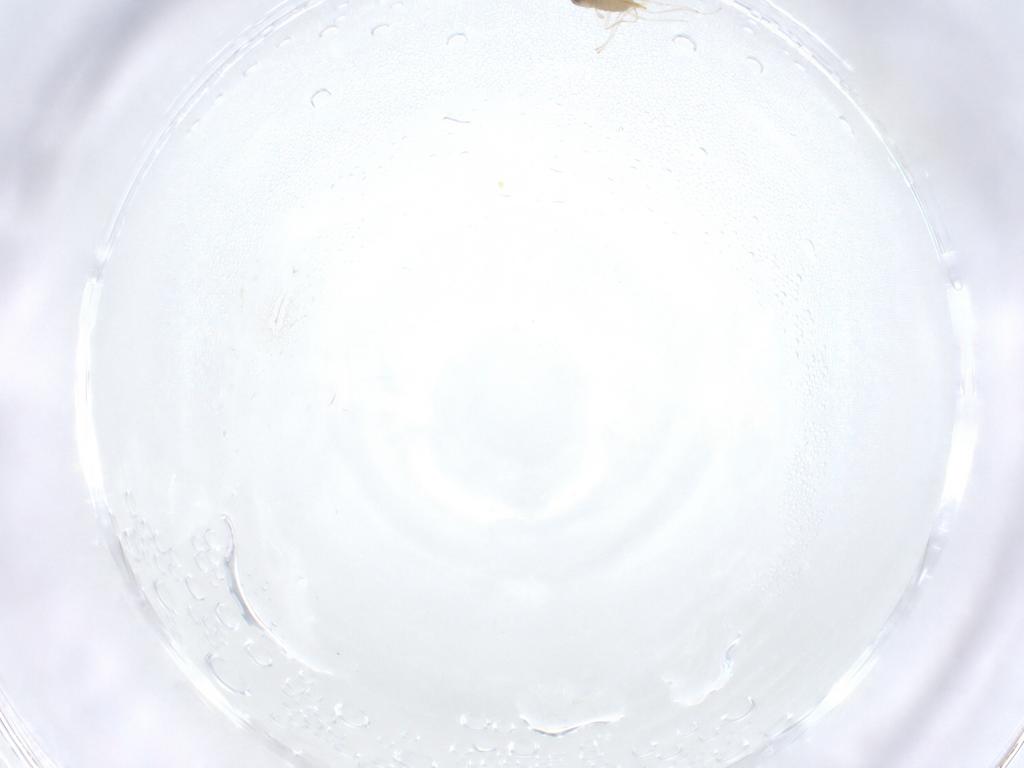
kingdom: Animalia
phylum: Arthropoda
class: Insecta
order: Diptera
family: Cecidomyiidae
